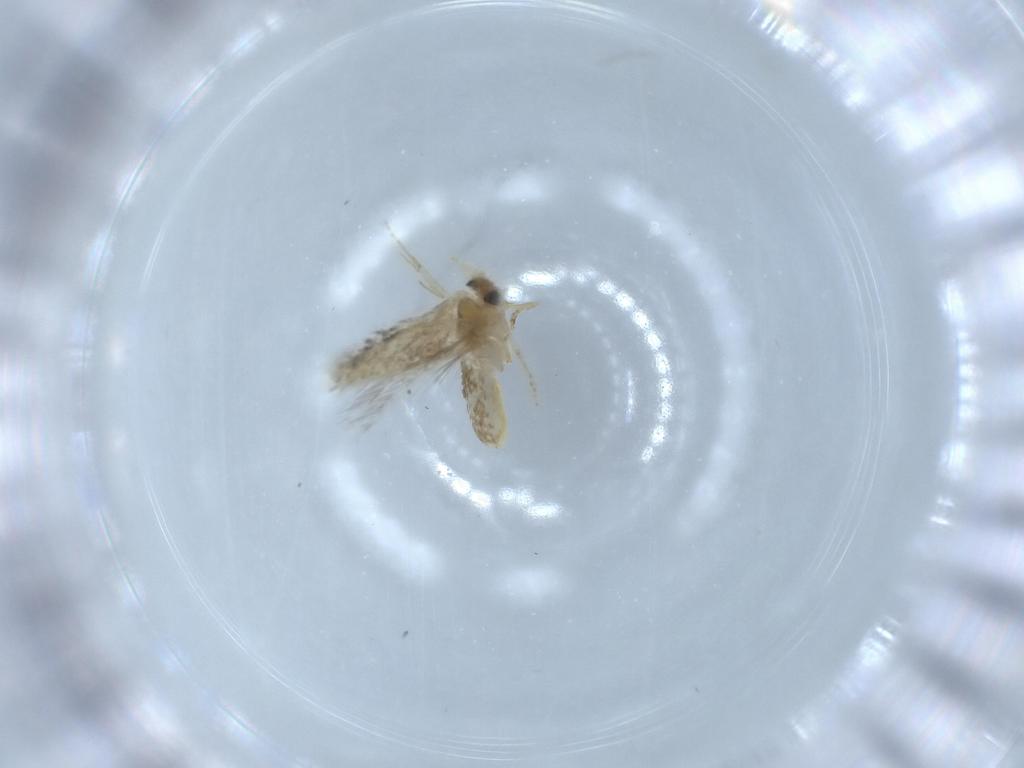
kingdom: Animalia
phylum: Arthropoda
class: Insecta
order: Lepidoptera
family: Nepticulidae
